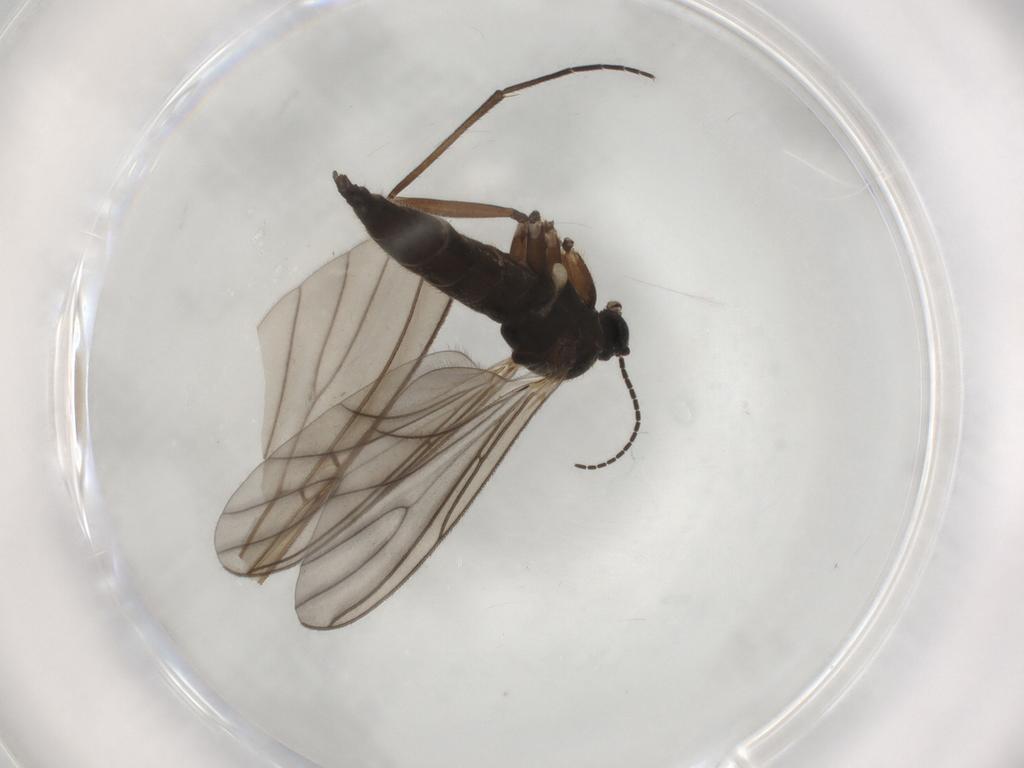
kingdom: Animalia
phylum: Arthropoda
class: Insecta
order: Diptera
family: Sciaridae
